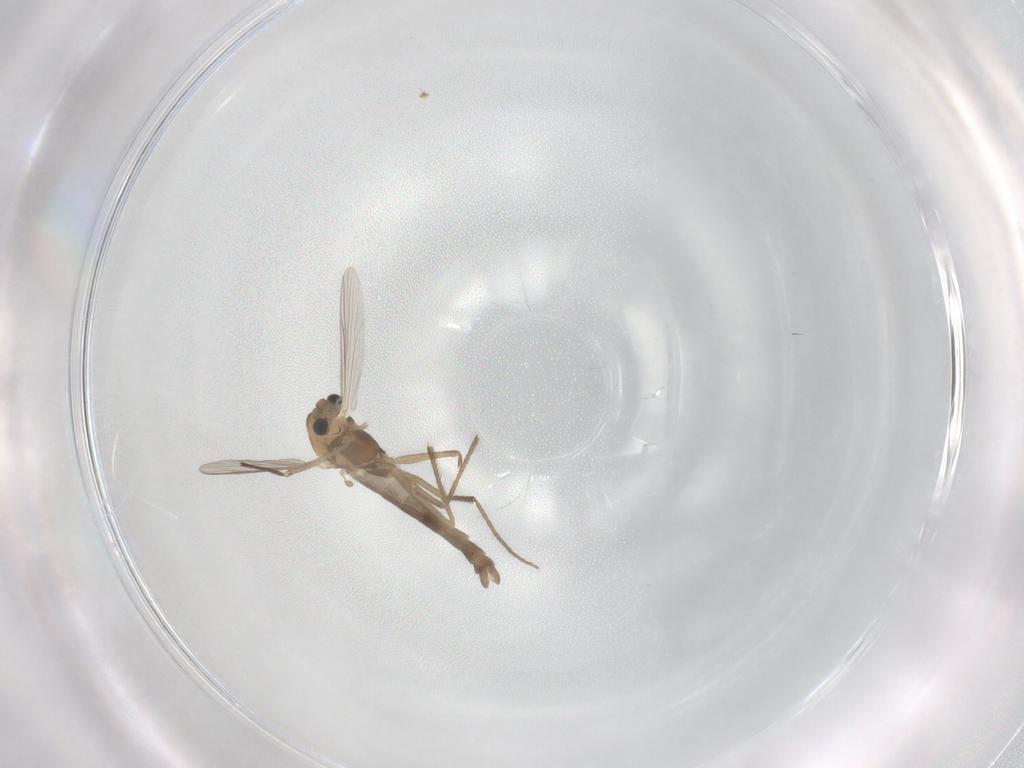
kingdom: Animalia
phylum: Arthropoda
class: Insecta
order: Diptera
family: Chironomidae
